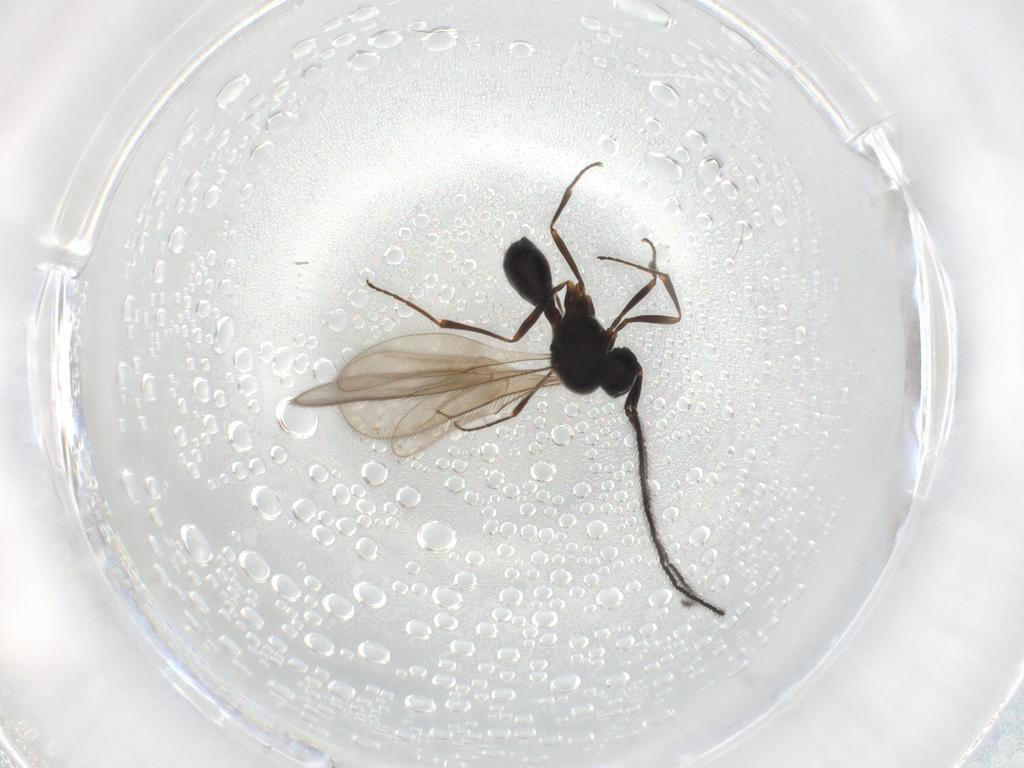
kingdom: Animalia
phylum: Arthropoda
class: Insecta
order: Hymenoptera
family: Scelionidae
